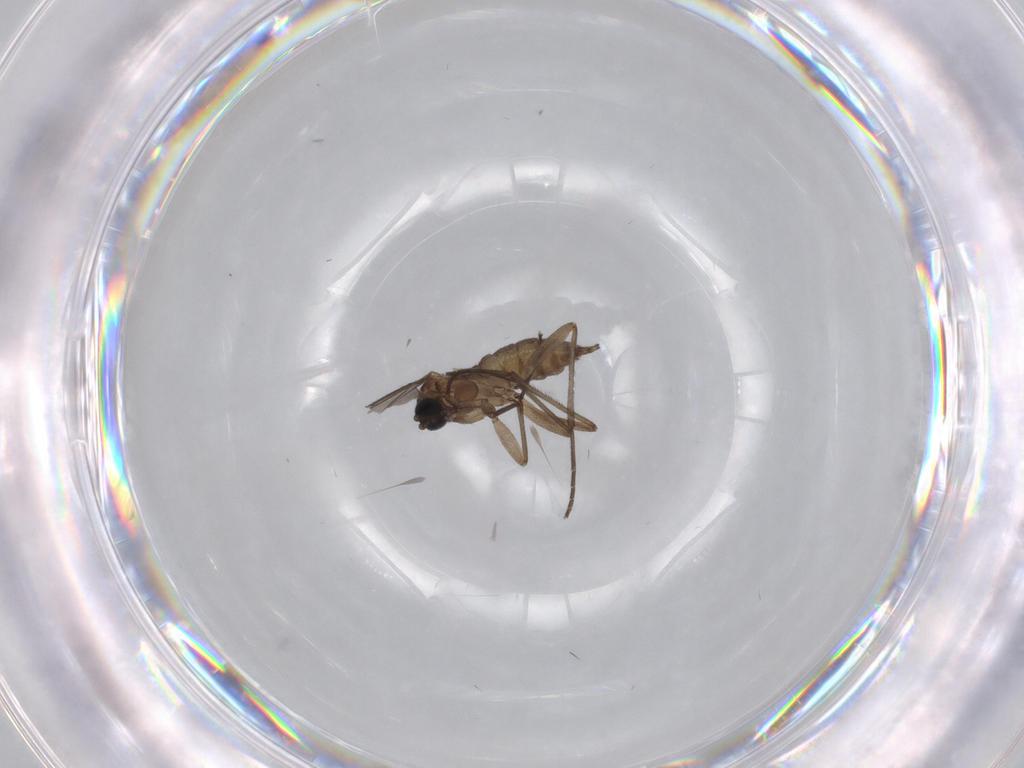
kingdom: Animalia
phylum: Arthropoda
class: Insecta
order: Diptera
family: Sciaridae
